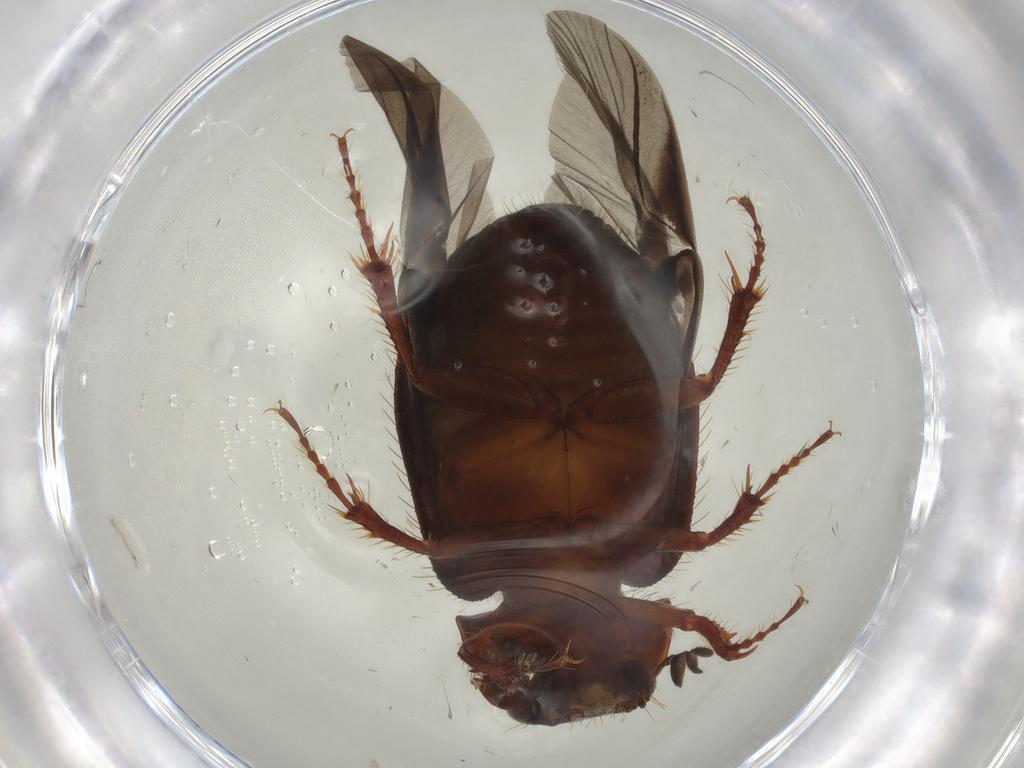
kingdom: Animalia
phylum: Arthropoda
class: Insecta
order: Coleoptera
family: Hybosoridae
